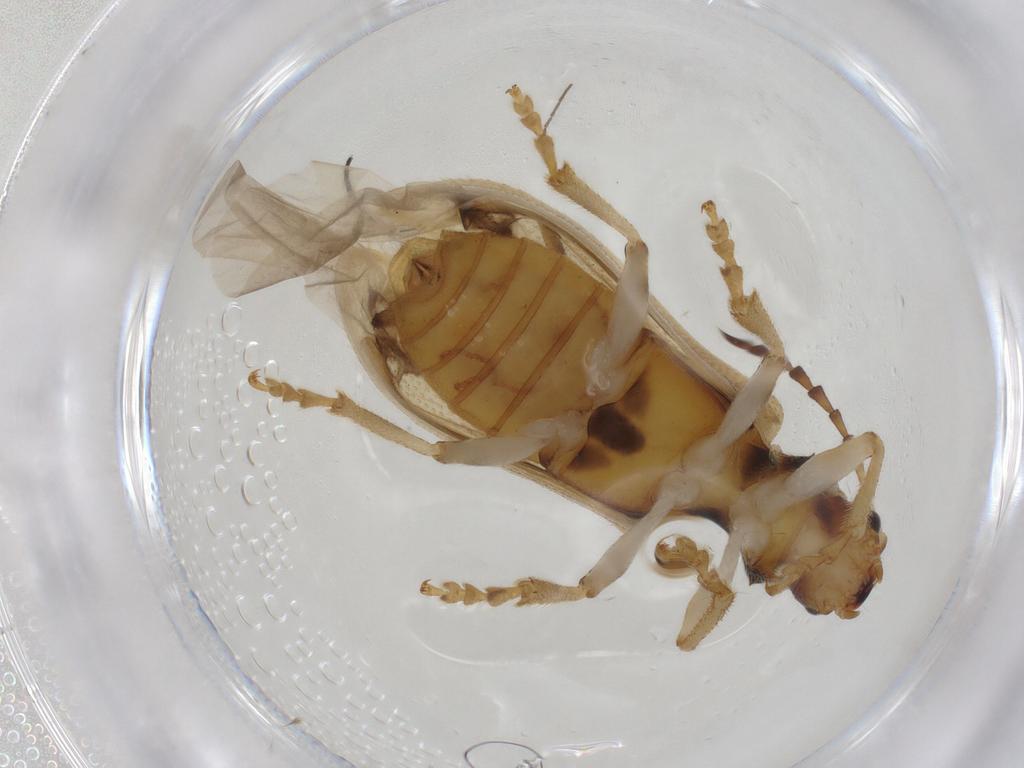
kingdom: Animalia
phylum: Arthropoda
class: Insecta
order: Coleoptera
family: Chrysomelidae
